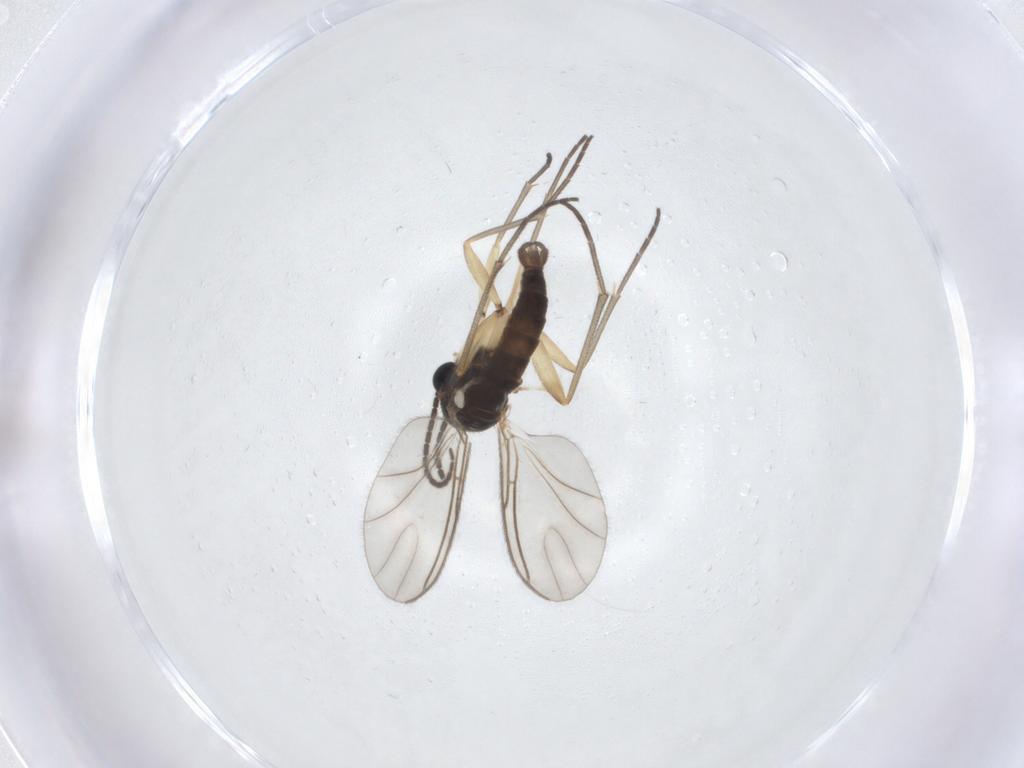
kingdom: Animalia
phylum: Arthropoda
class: Insecta
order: Diptera
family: Sciaridae
